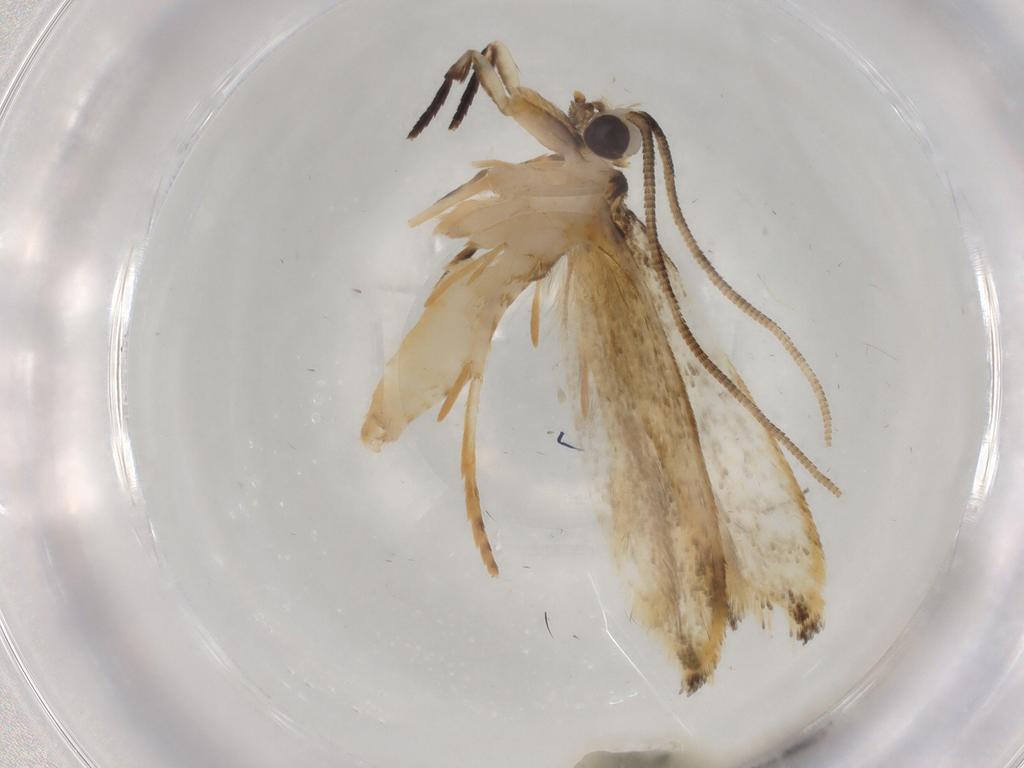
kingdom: Animalia
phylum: Arthropoda
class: Insecta
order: Lepidoptera
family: Tineidae
